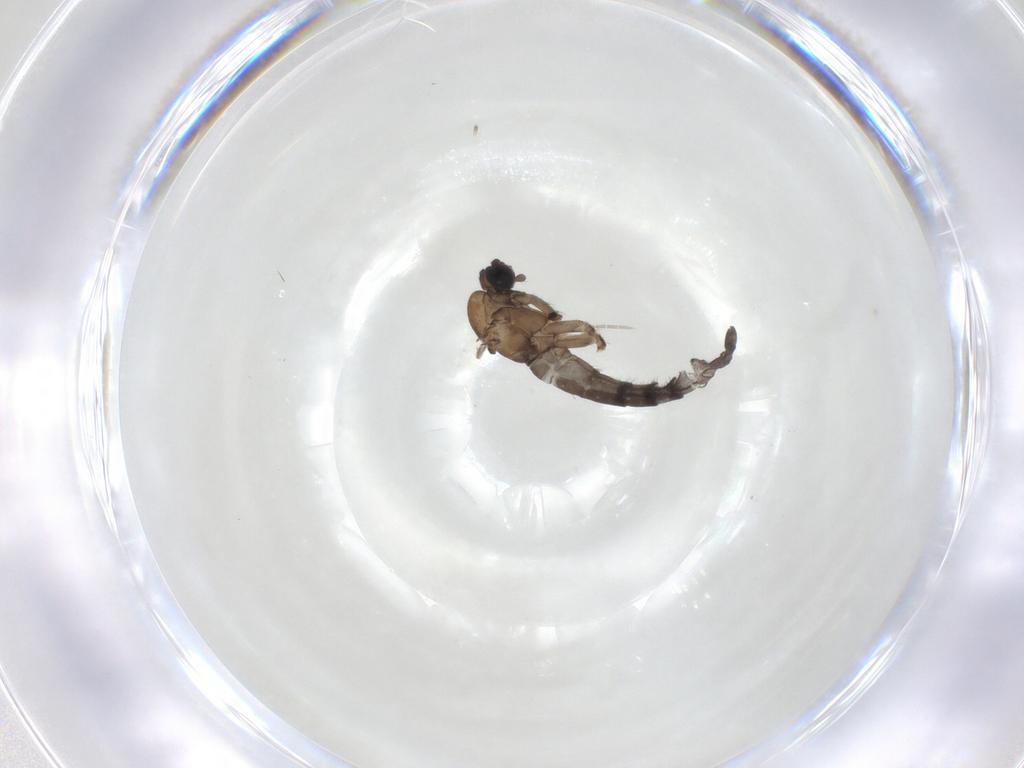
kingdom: Animalia
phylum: Arthropoda
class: Insecta
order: Diptera
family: Sciaridae
